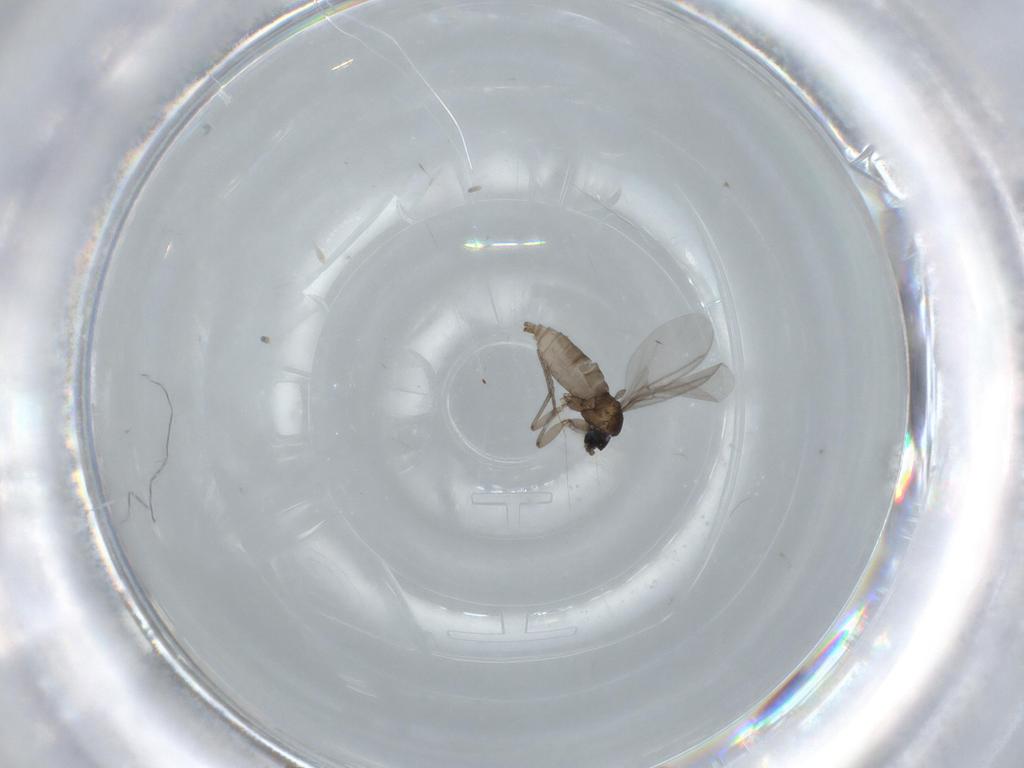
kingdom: Animalia
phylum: Arthropoda
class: Insecta
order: Diptera
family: Sciaridae
